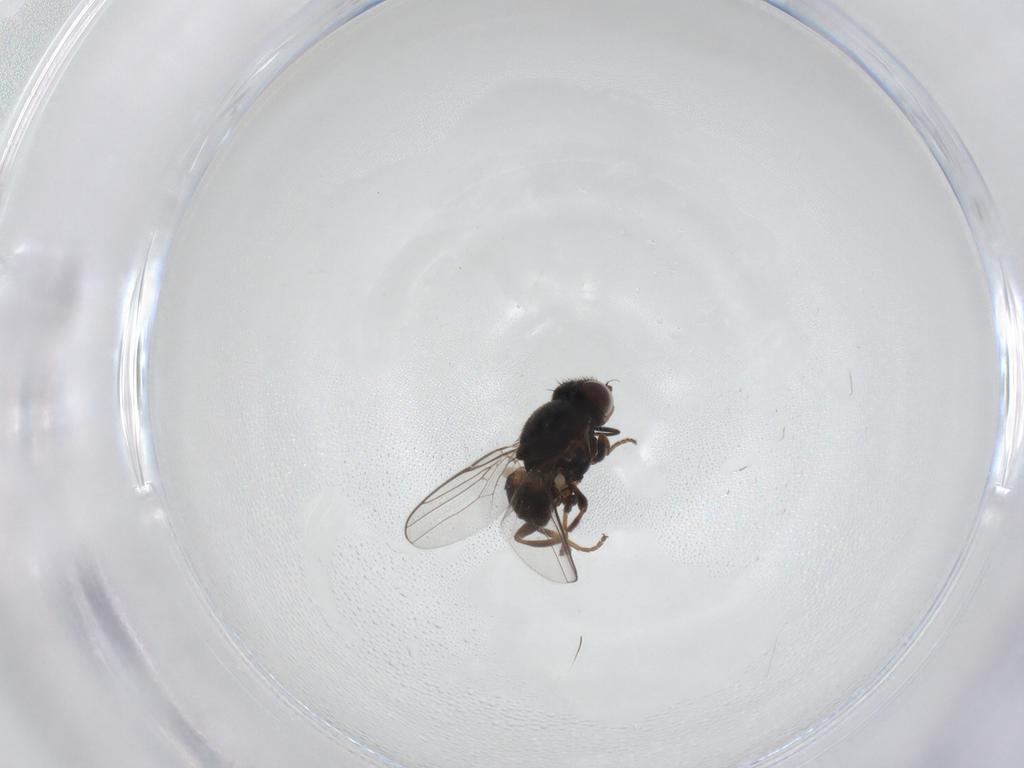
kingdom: Animalia
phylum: Arthropoda
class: Insecta
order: Diptera
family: Chloropidae
